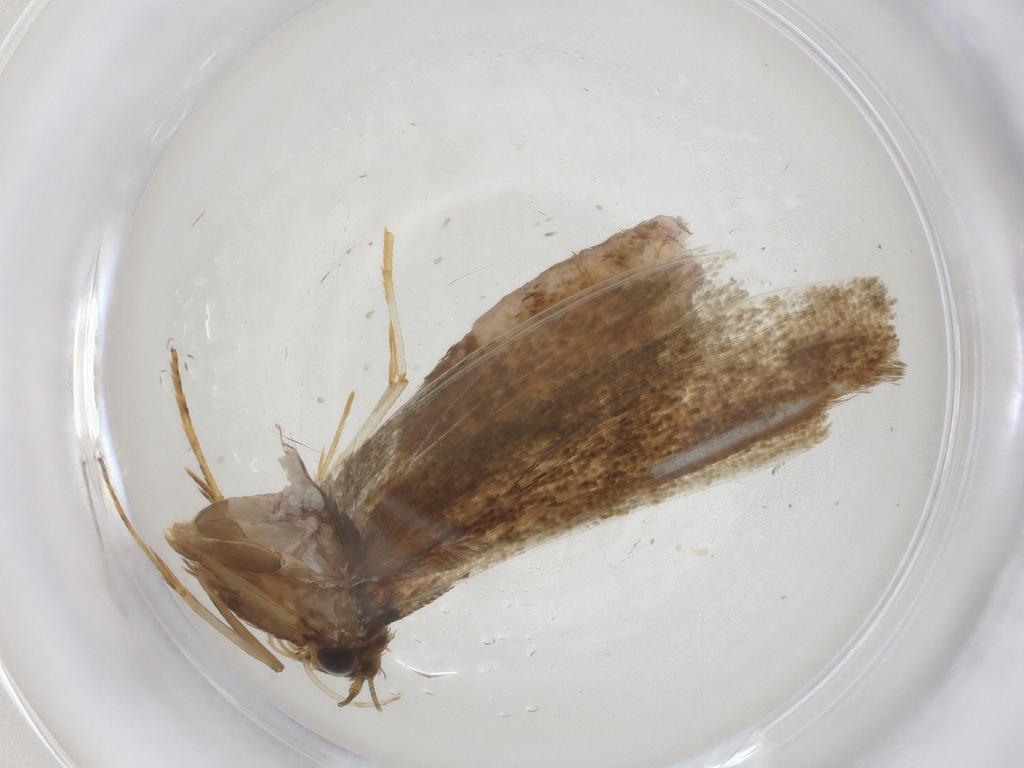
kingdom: Animalia
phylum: Arthropoda
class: Insecta
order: Lepidoptera
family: Blastobasidae
